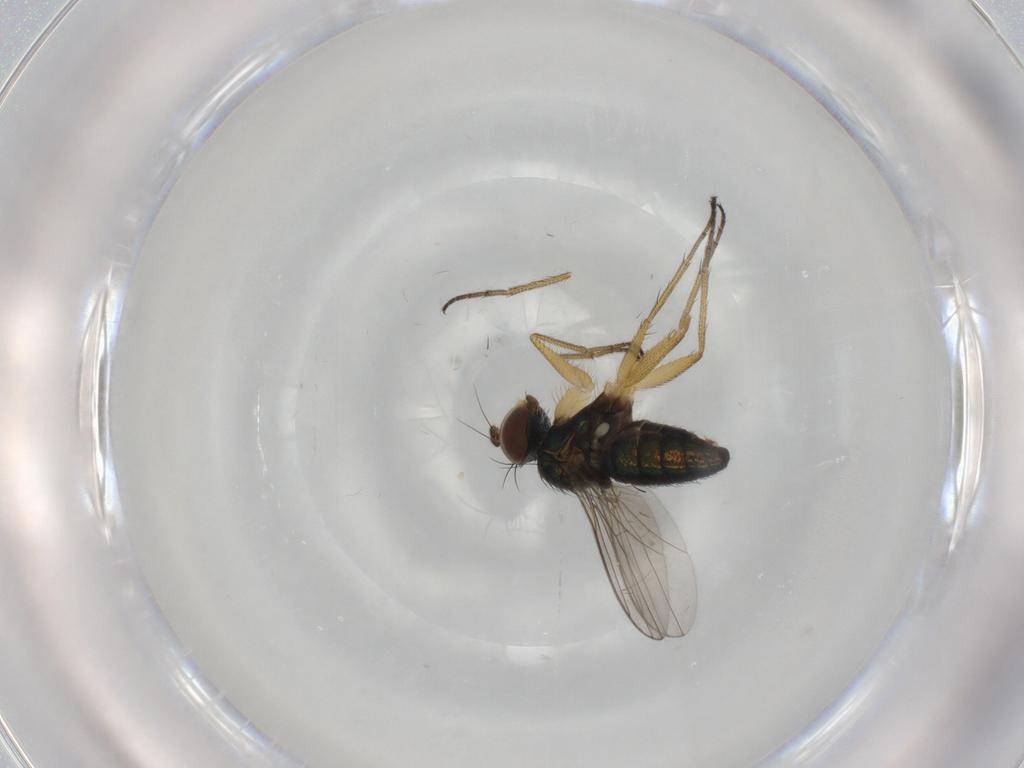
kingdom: Animalia
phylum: Arthropoda
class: Insecta
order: Diptera
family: Dolichopodidae
